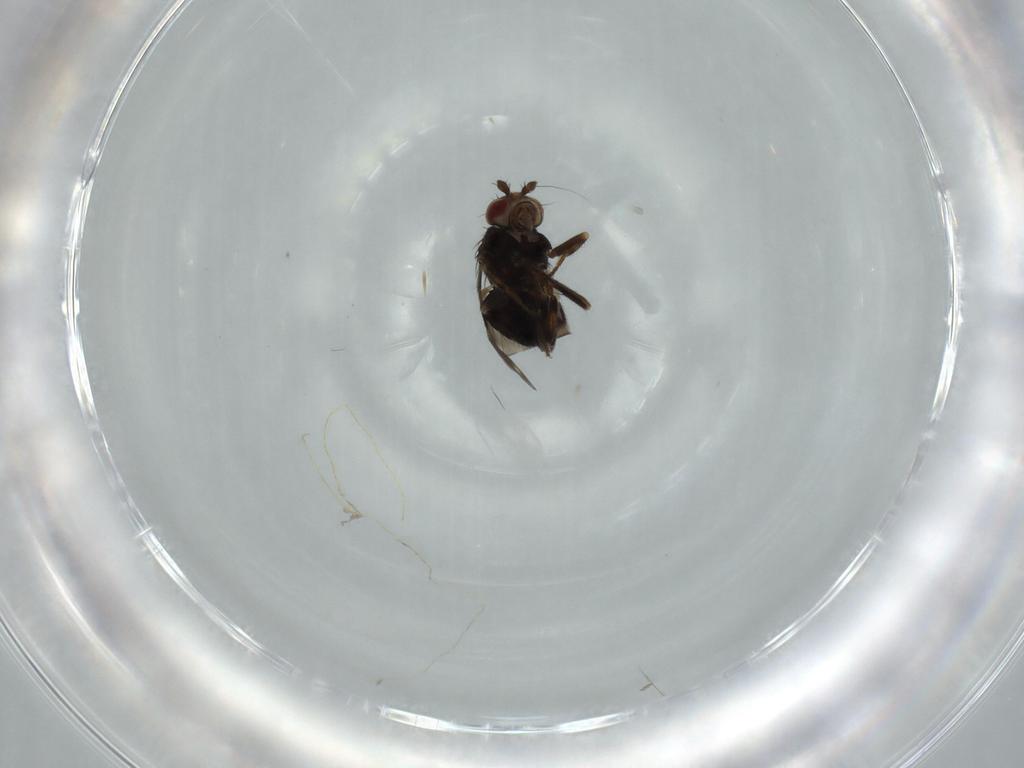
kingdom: Animalia
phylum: Arthropoda
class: Insecta
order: Diptera
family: Sphaeroceridae
